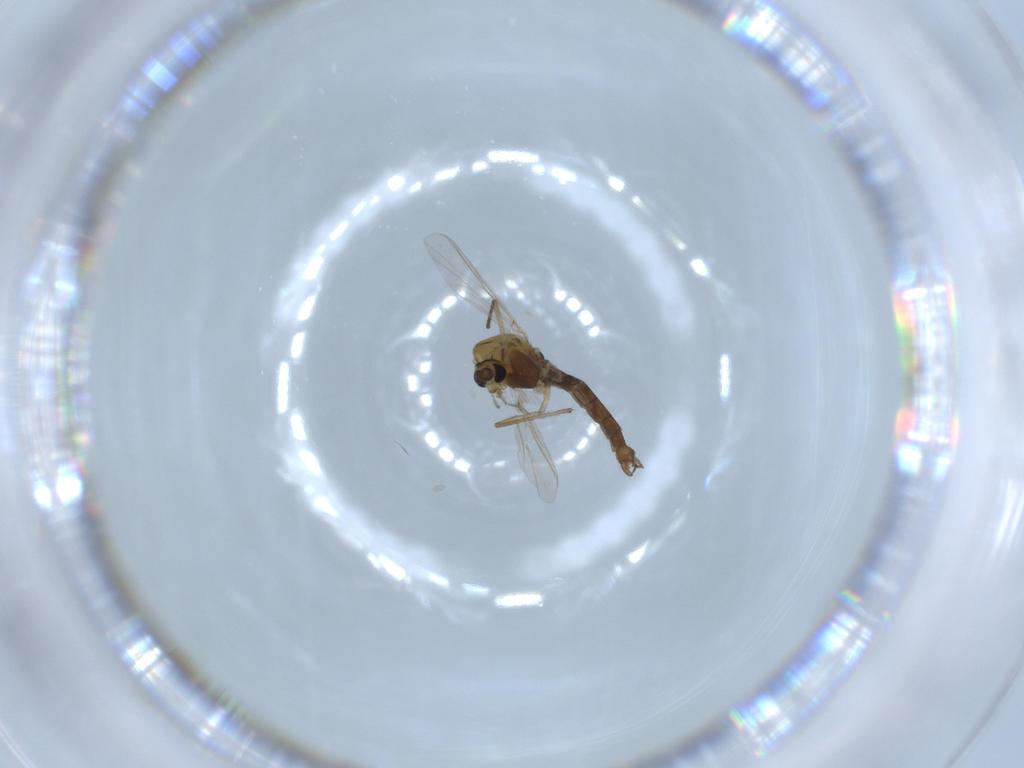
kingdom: Animalia
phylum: Arthropoda
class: Insecta
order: Diptera
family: Chironomidae
